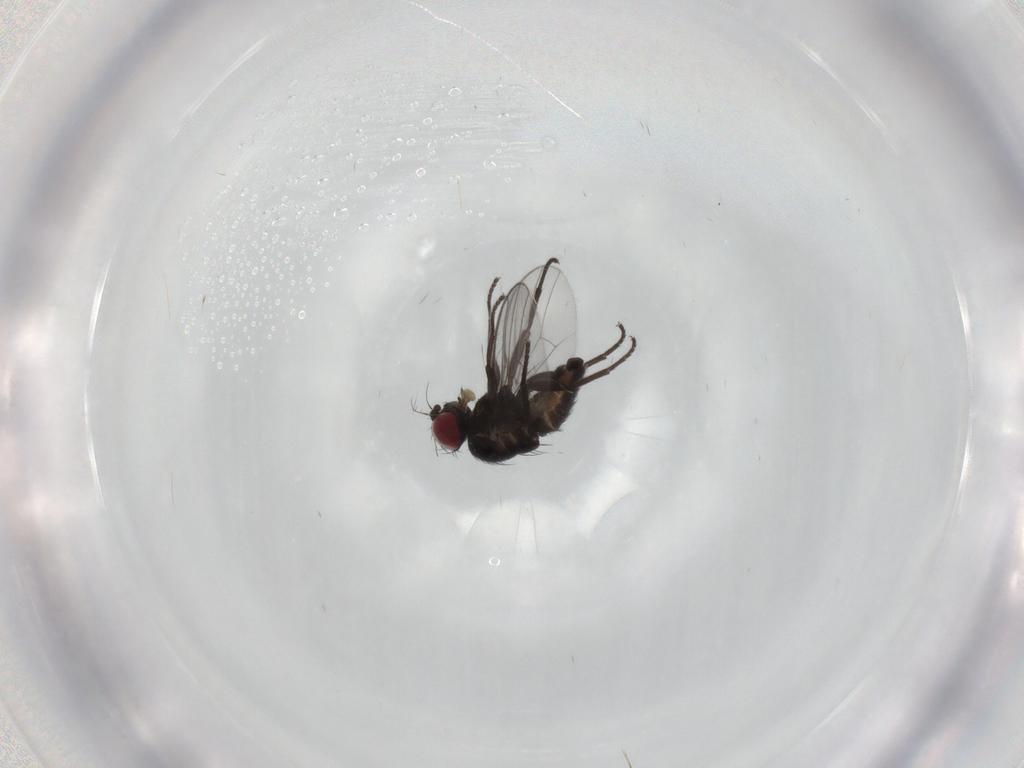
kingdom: Animalia
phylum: Arthropoda
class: Insecta
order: Diptera
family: Agromyzidae
